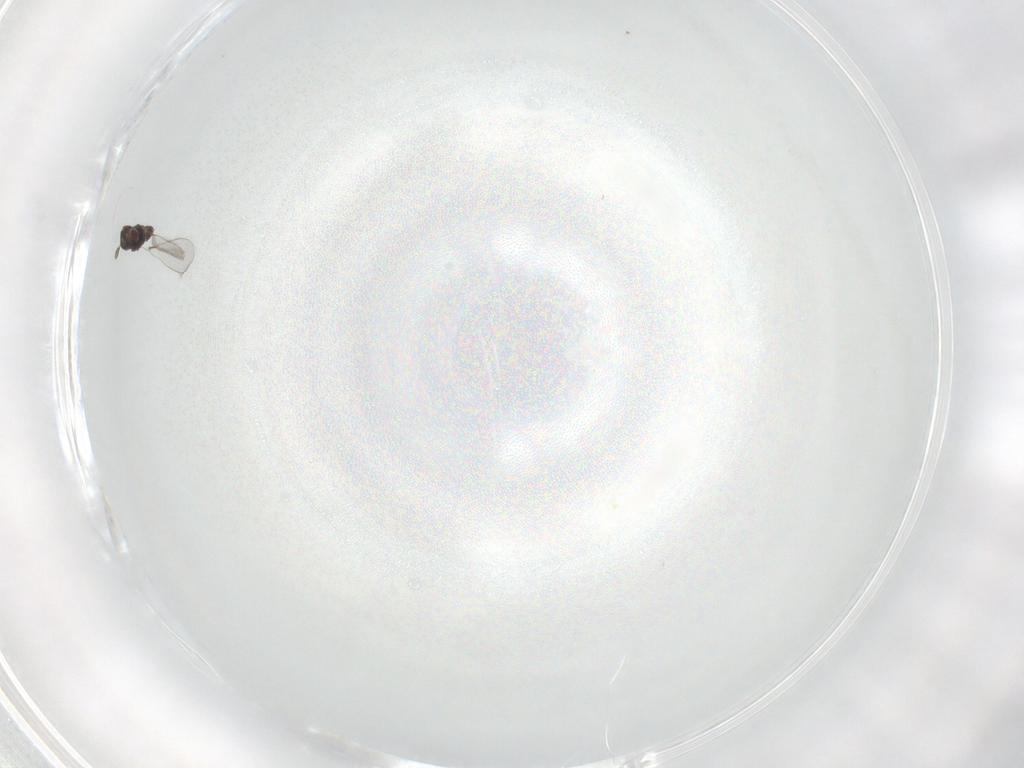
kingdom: Animalia
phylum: Arthropoda
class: Insecta
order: Hymenoptera
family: Mymaridae
